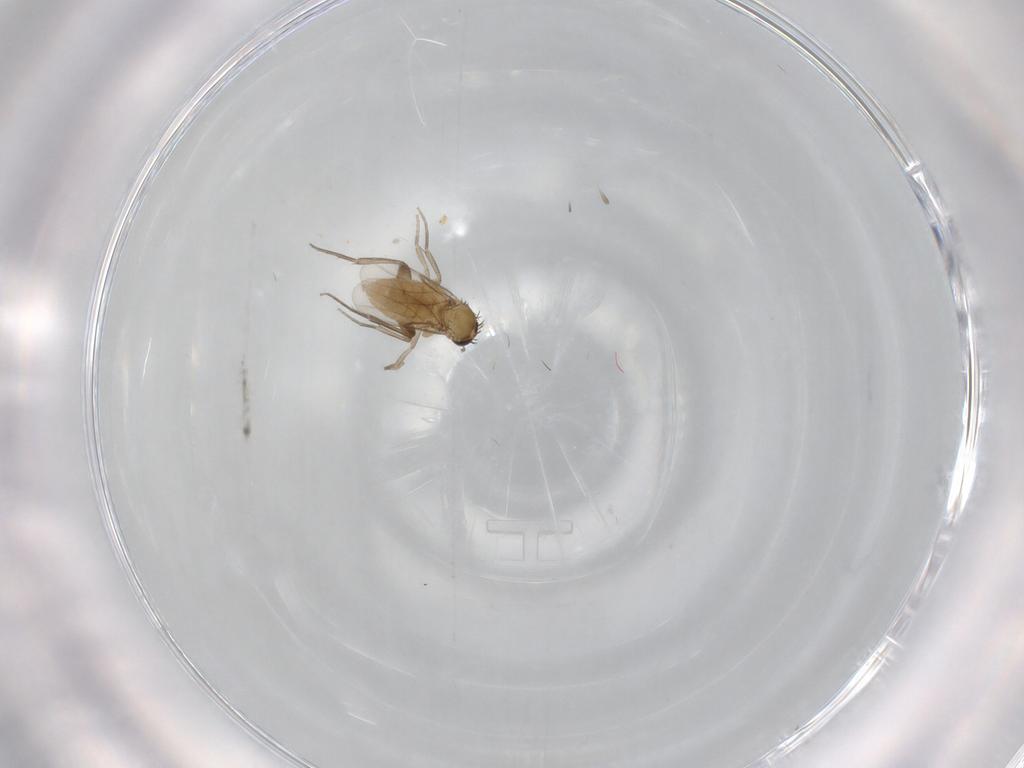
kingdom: Animalia
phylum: Arthropoda
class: Insecta
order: Diptera
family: Phoridae
